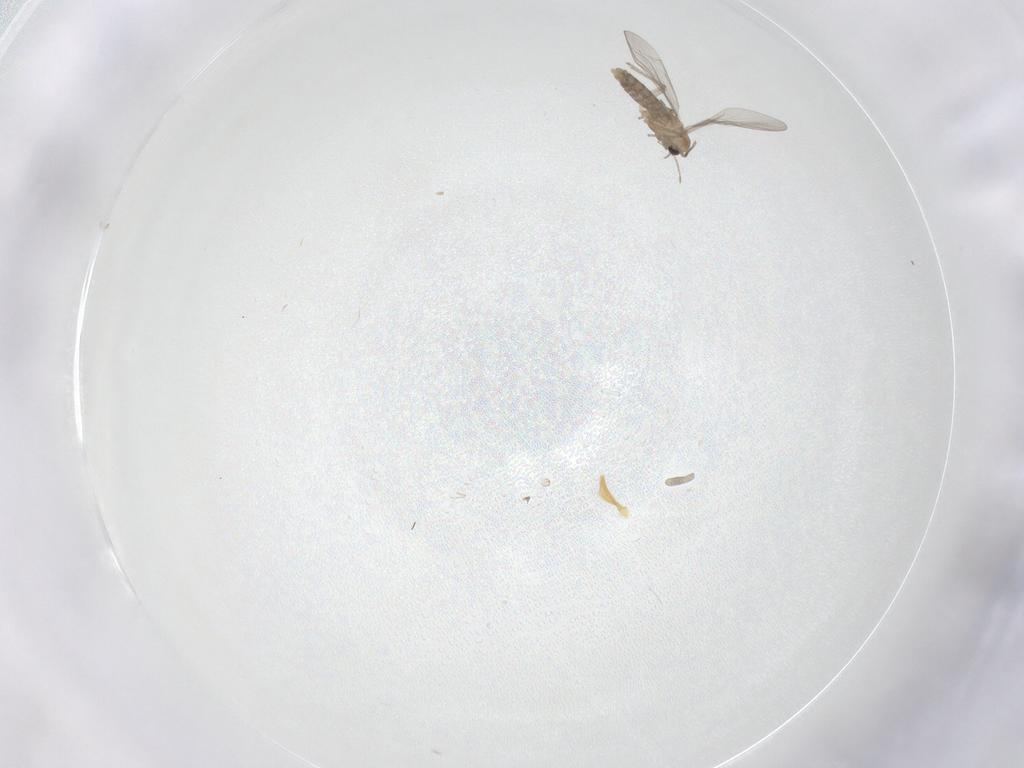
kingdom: Animalia
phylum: Arthropoda
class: Insecta
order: Diptera
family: Chironomidae
